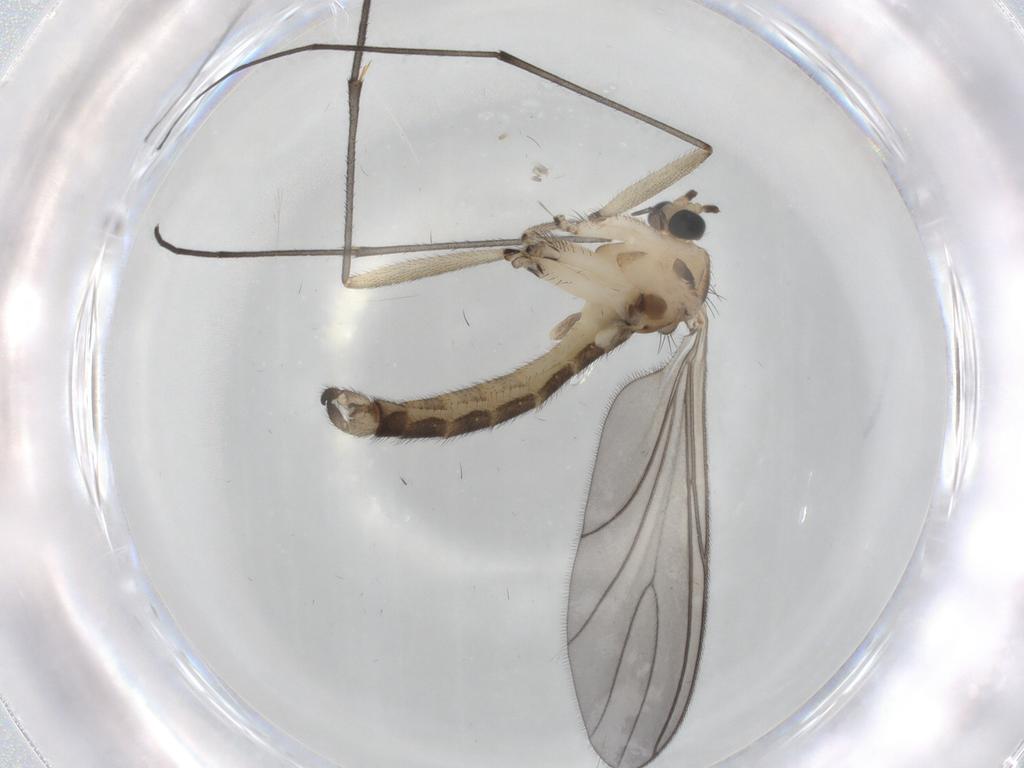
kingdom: Animalia
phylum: Arthropoda
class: Insecta
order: Diptera
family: Sciaridae
